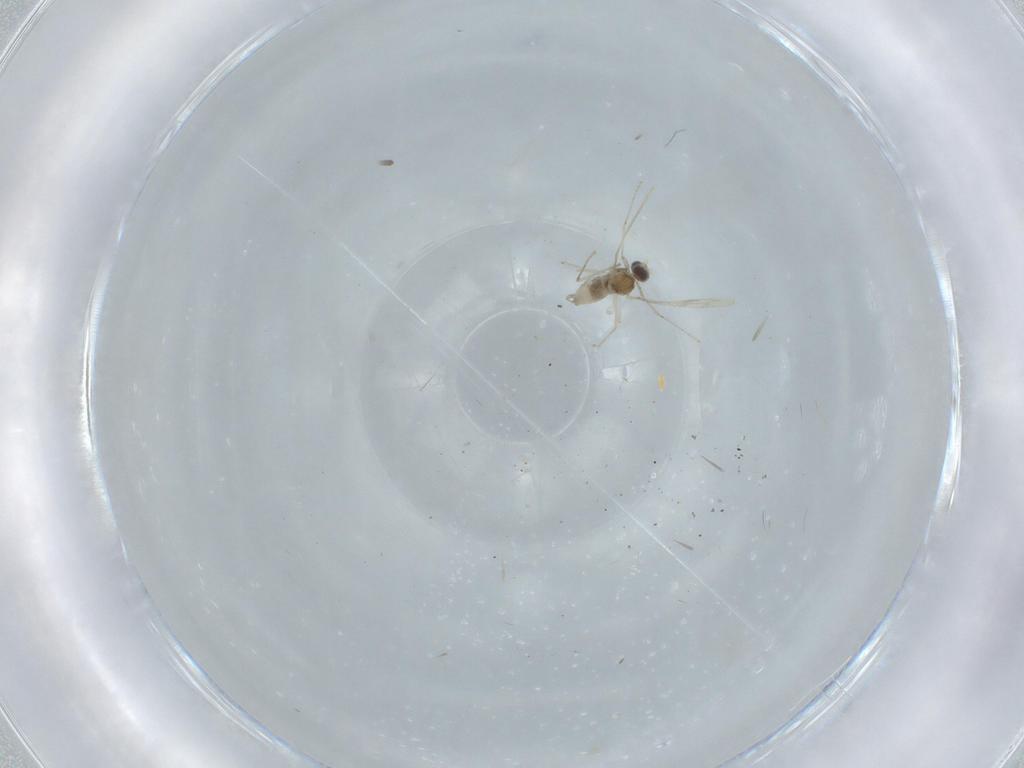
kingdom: Animalia
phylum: Arthropoda
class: Insecta
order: Diptera
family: Cecidomyiidae
